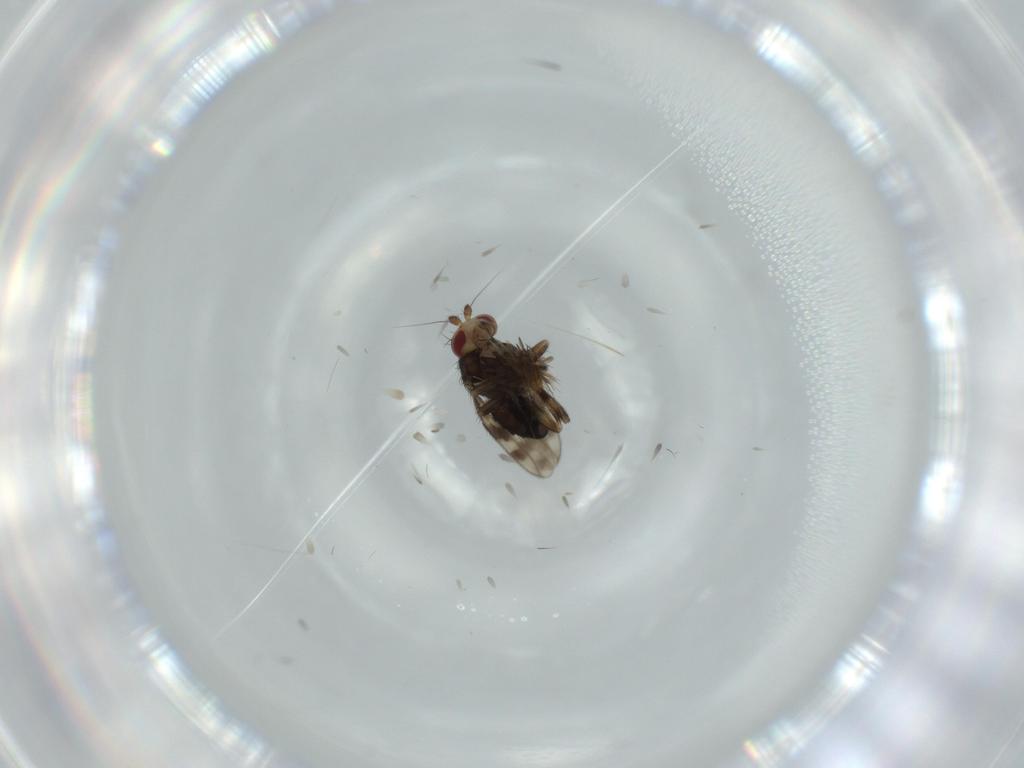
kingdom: Animalia
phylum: Arthropoda
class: Insecta
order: Diptera
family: Sphaeroceridae
